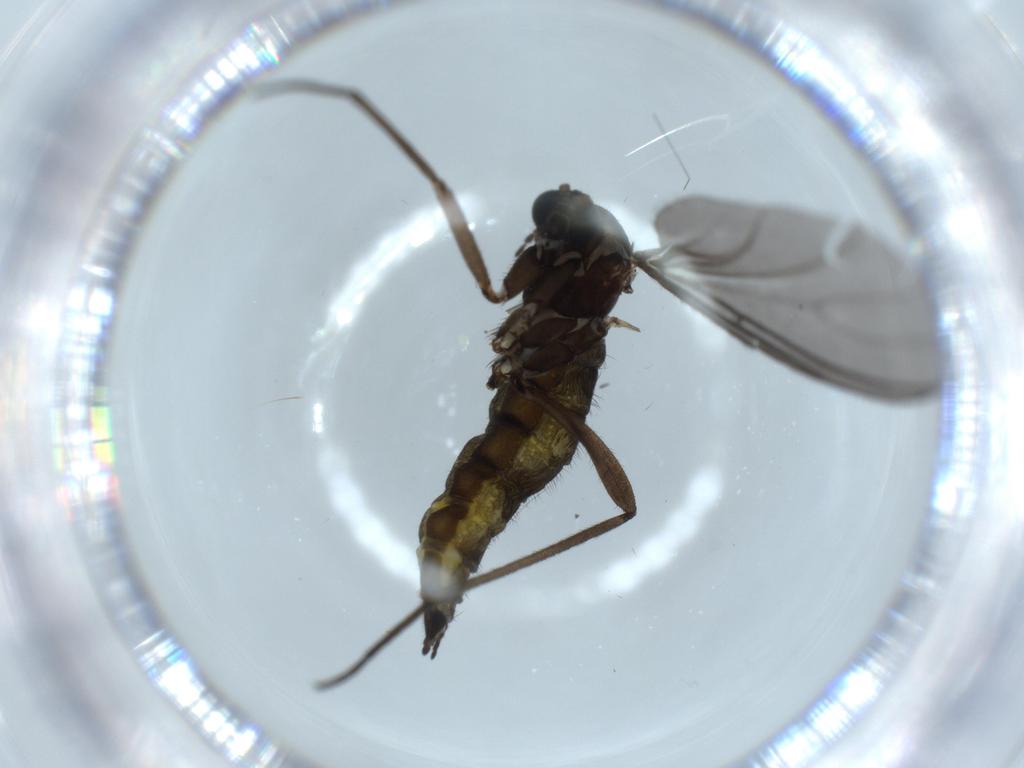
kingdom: Animalia
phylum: Arthropoda
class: Insecta
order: Diptera
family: Sciaridae
